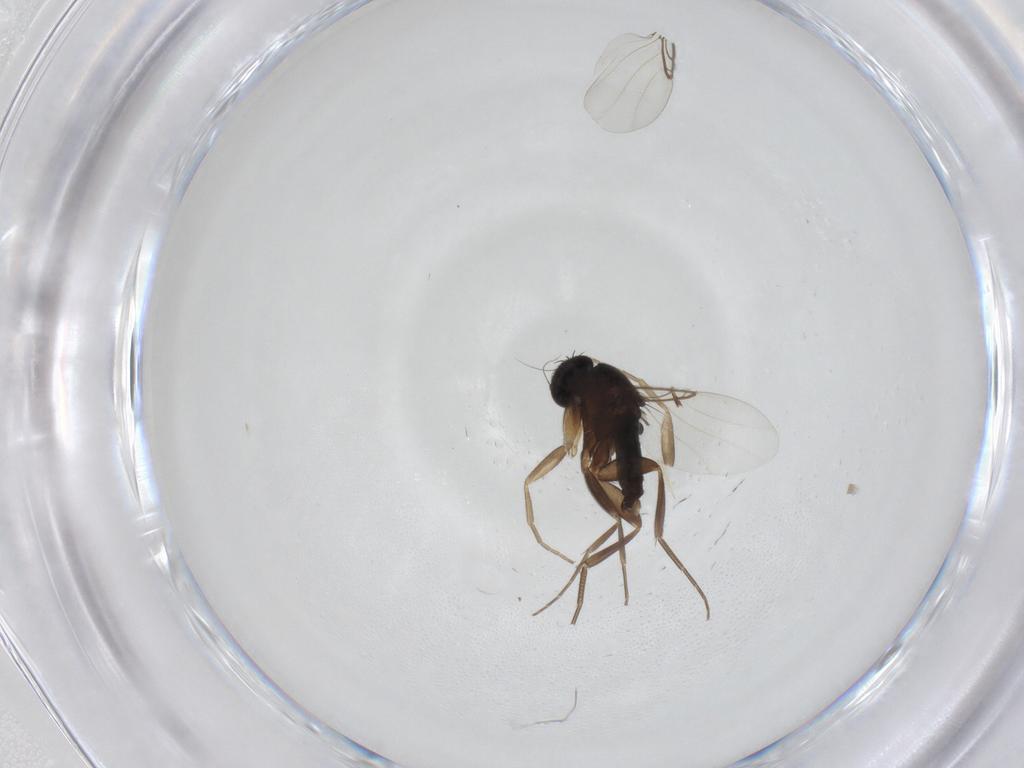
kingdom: Animalia
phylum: Arthropoda
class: Insecta
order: Diptera
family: Phoridae
